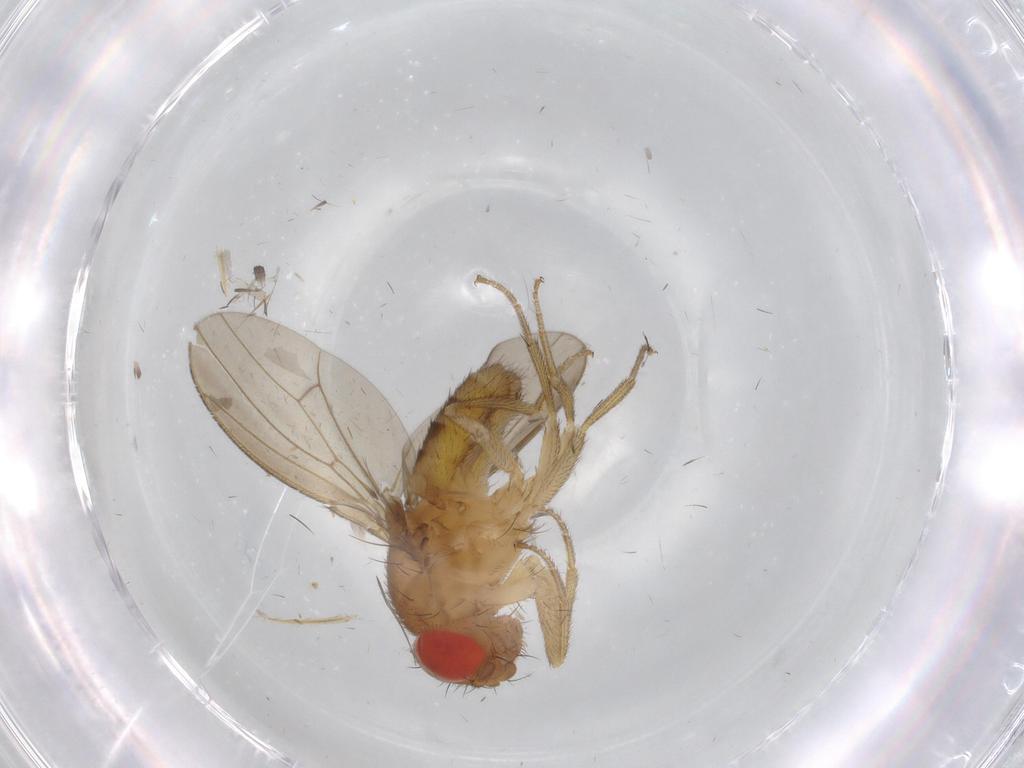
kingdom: Animalia
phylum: Arthropoda
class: Insecta
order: Diptera
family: Drosophilidae
